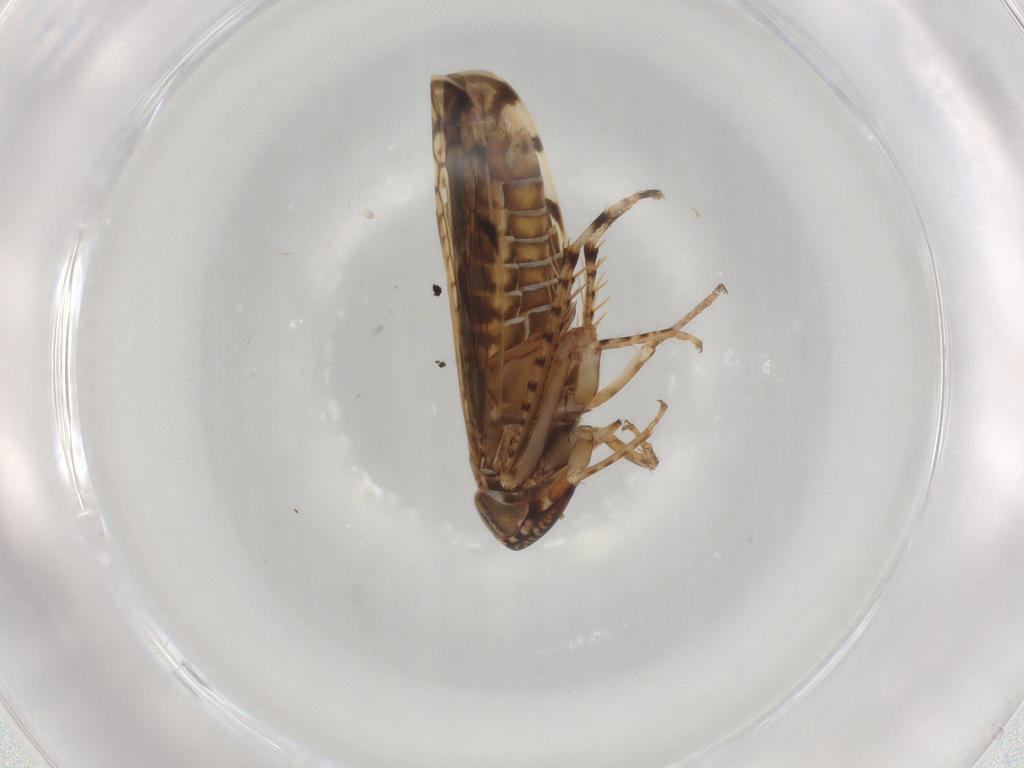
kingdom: Animalia
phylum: Arthropoda
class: Insecta
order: Hemiptera
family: Cicadellidae
